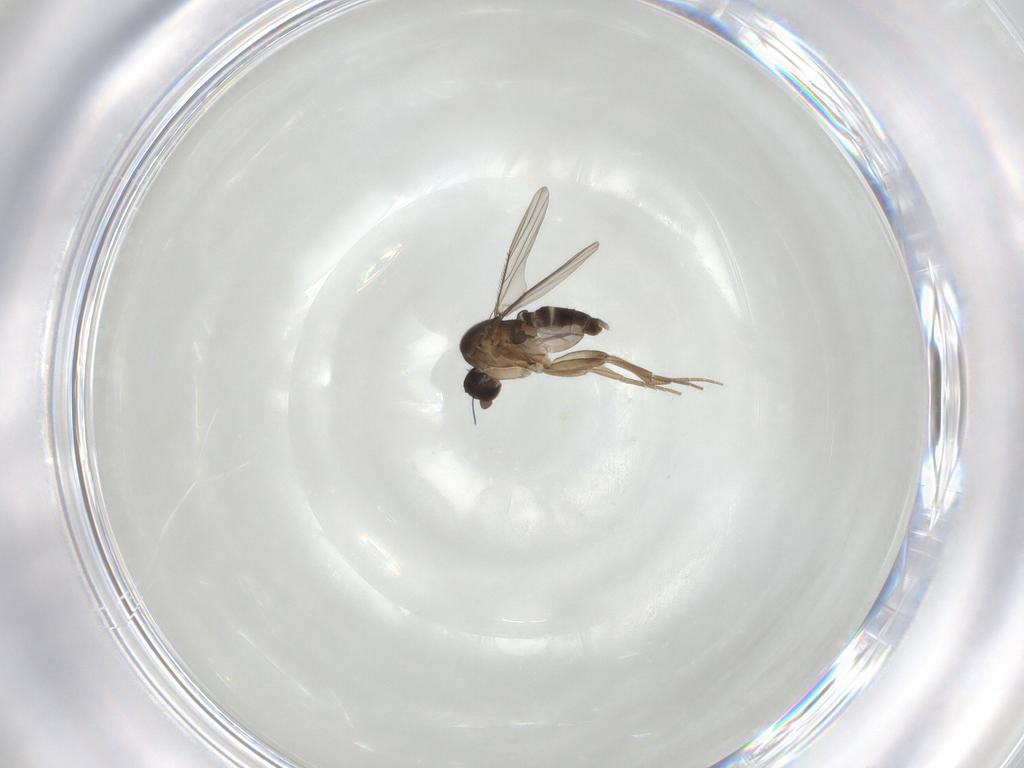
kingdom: Animalia
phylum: Arthropoda
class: Insecta
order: Diptera
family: Phoridae
